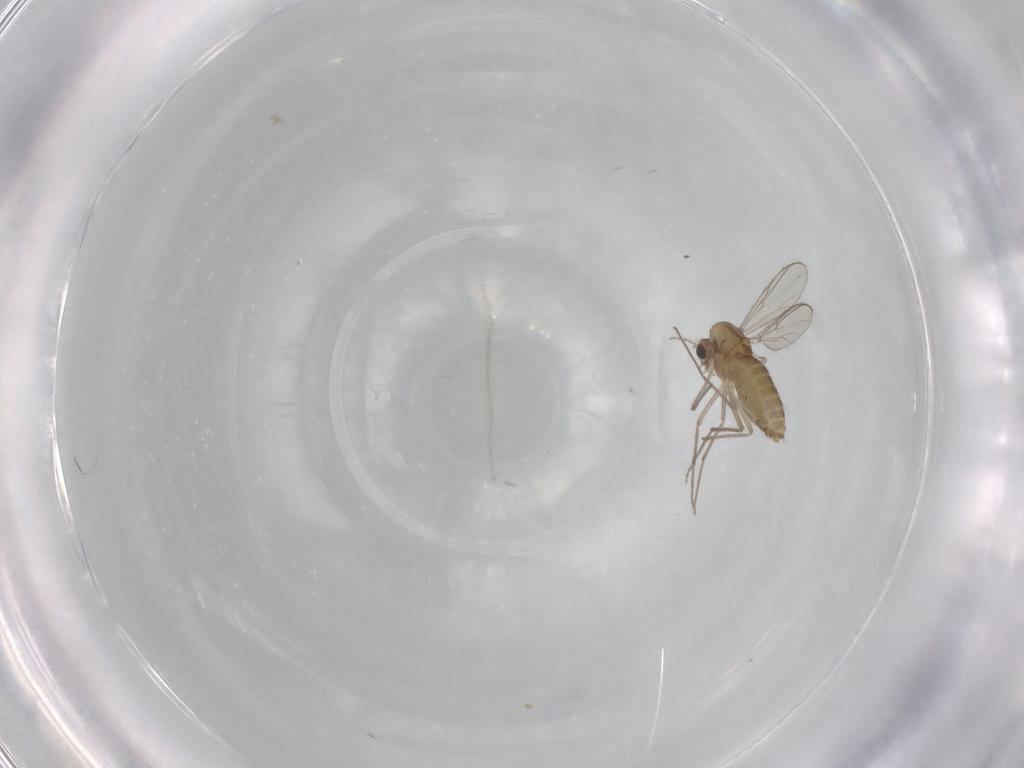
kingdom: Animalia
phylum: Arthropoda
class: Insecta
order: Diptera
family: Chironomidae
